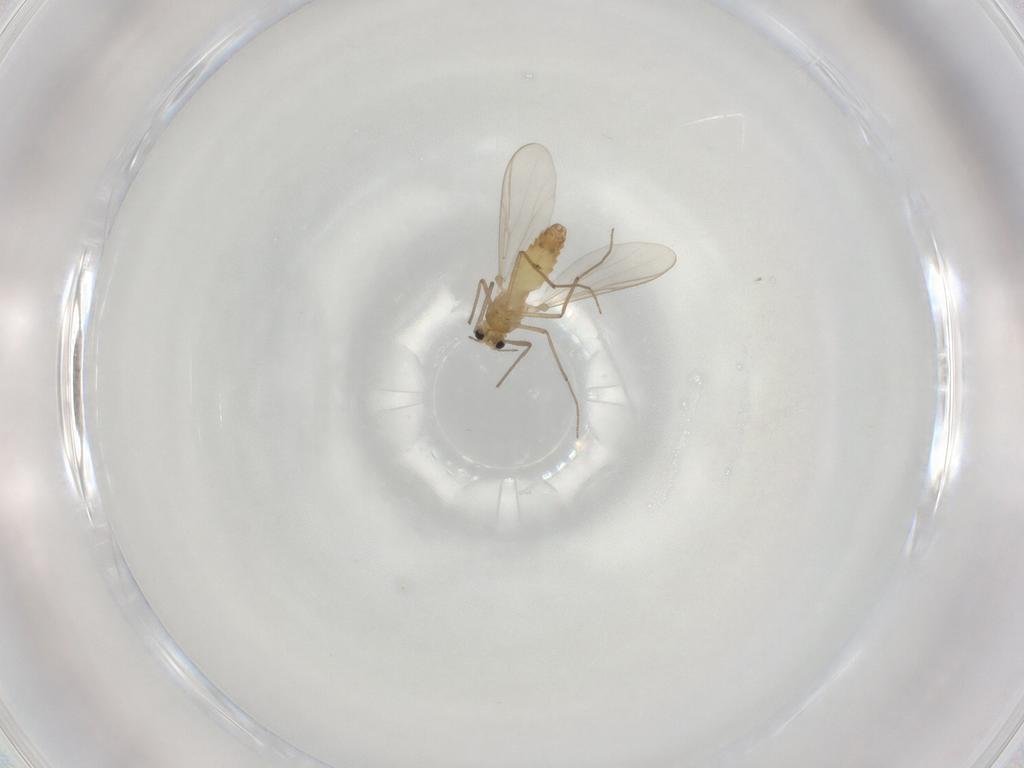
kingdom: Animalia
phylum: Arthropoda
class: Insecta
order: Diptera
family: Chironomidae
